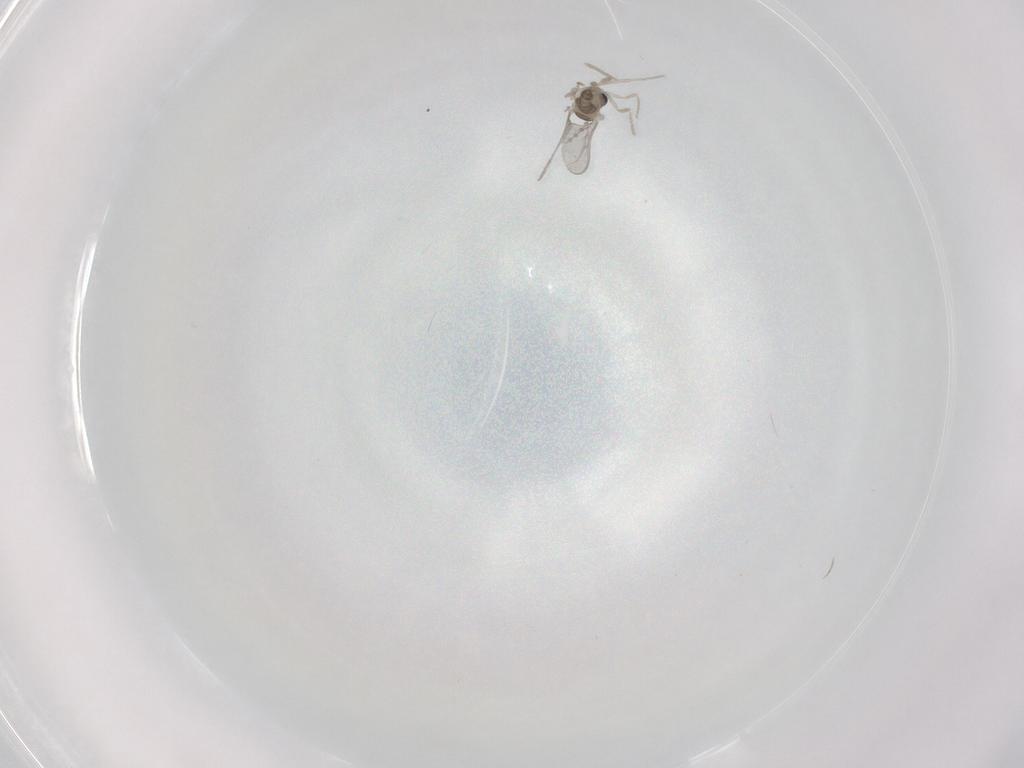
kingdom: Animalia
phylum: Arthropoda
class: Insecta
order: Diptera
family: Cecidomyiidae
